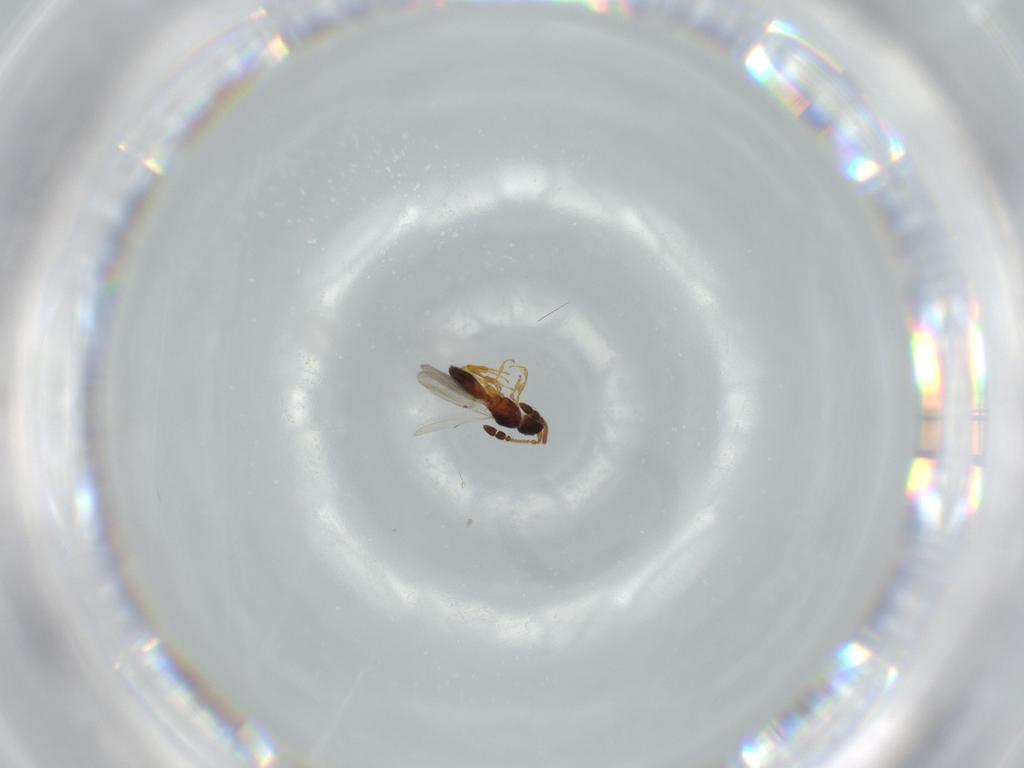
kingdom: Animalia
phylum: Arthropoda
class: Insecta
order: Hymenoptera
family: Diapriidae
